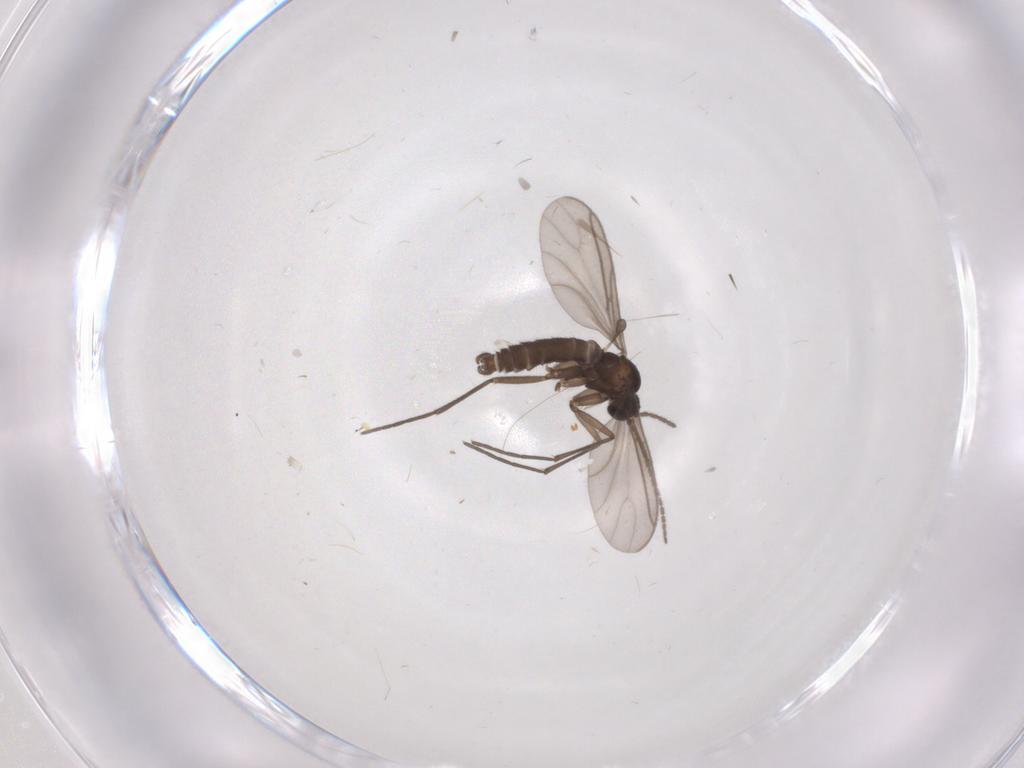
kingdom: Animalia
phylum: Arthropoda
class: Insecta
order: Diptera
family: Sciaridae
